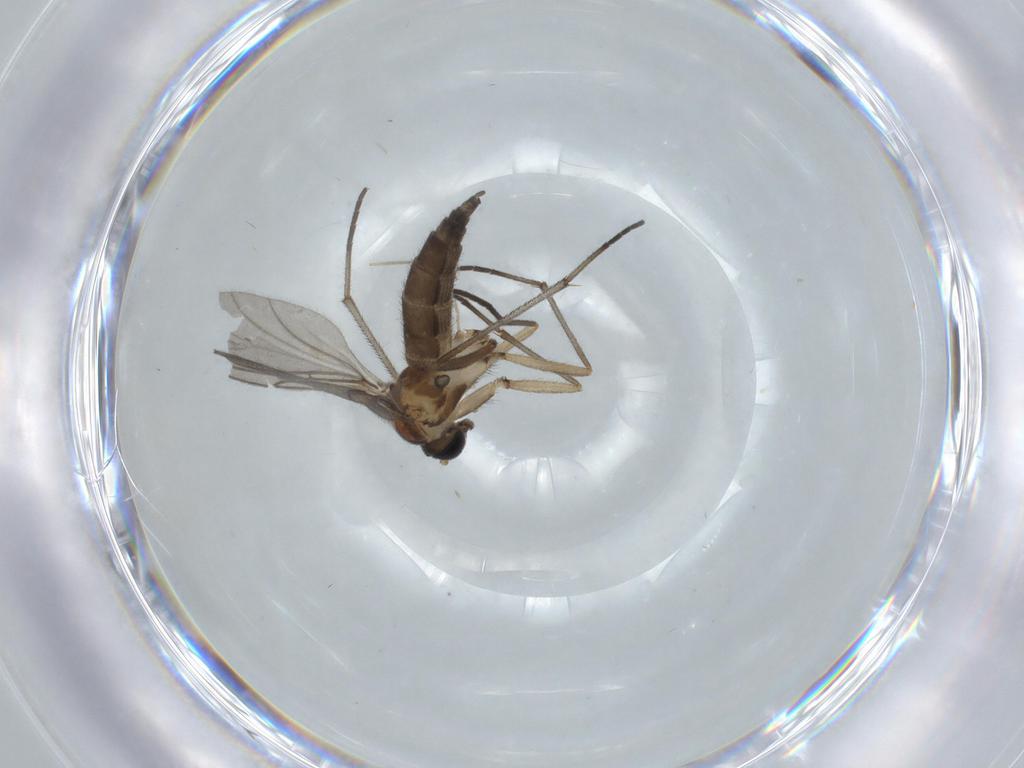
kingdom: Animalia
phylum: Arthropoda
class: Insecta
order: Diptera
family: Sciaridae
